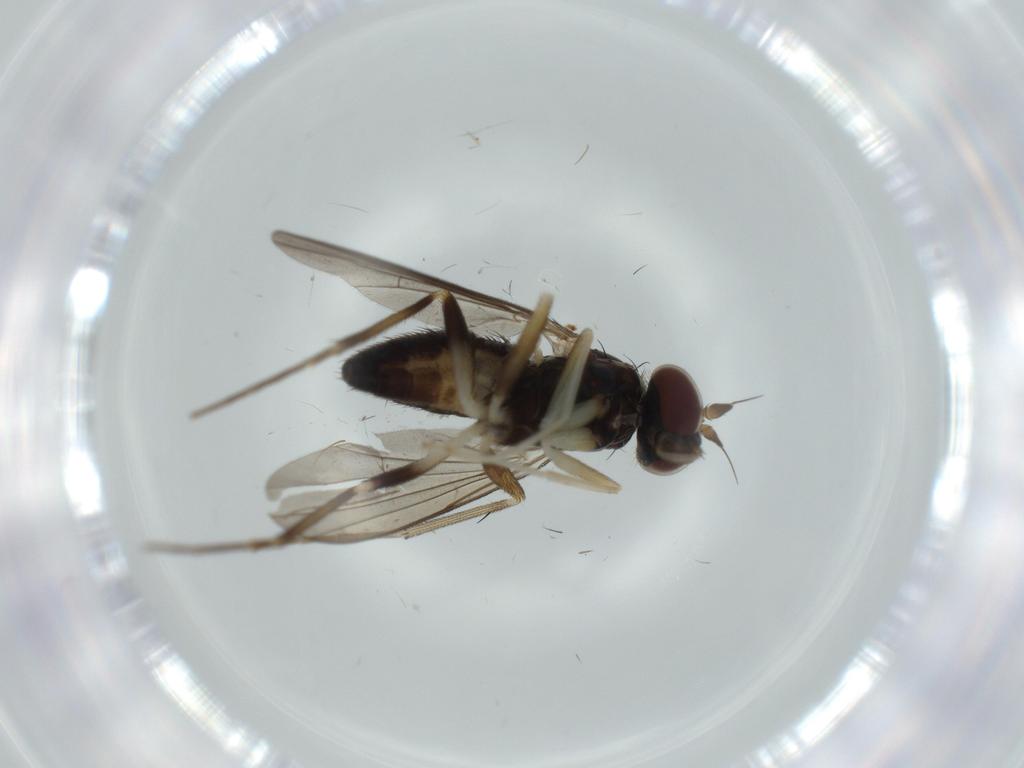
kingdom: Animalia
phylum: Arthropoda
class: Insecta
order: Diptera
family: Dolichopodidae
